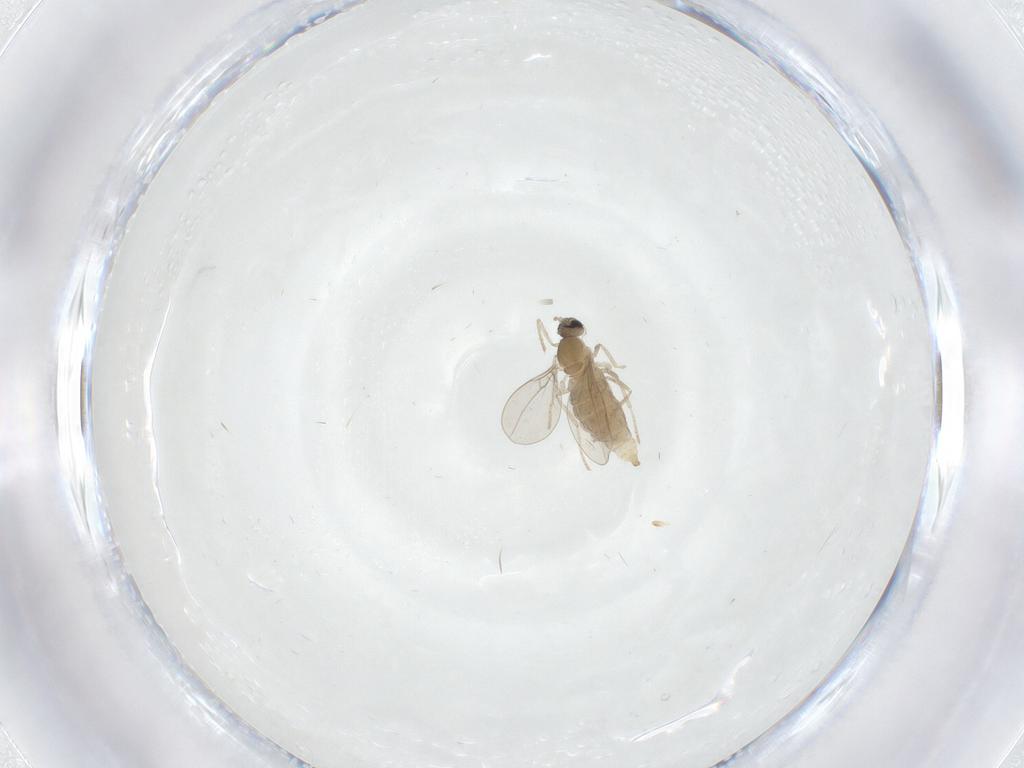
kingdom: Animalia
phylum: Arthropoda
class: Insecta
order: Diptera
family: Cecidomyiidae
